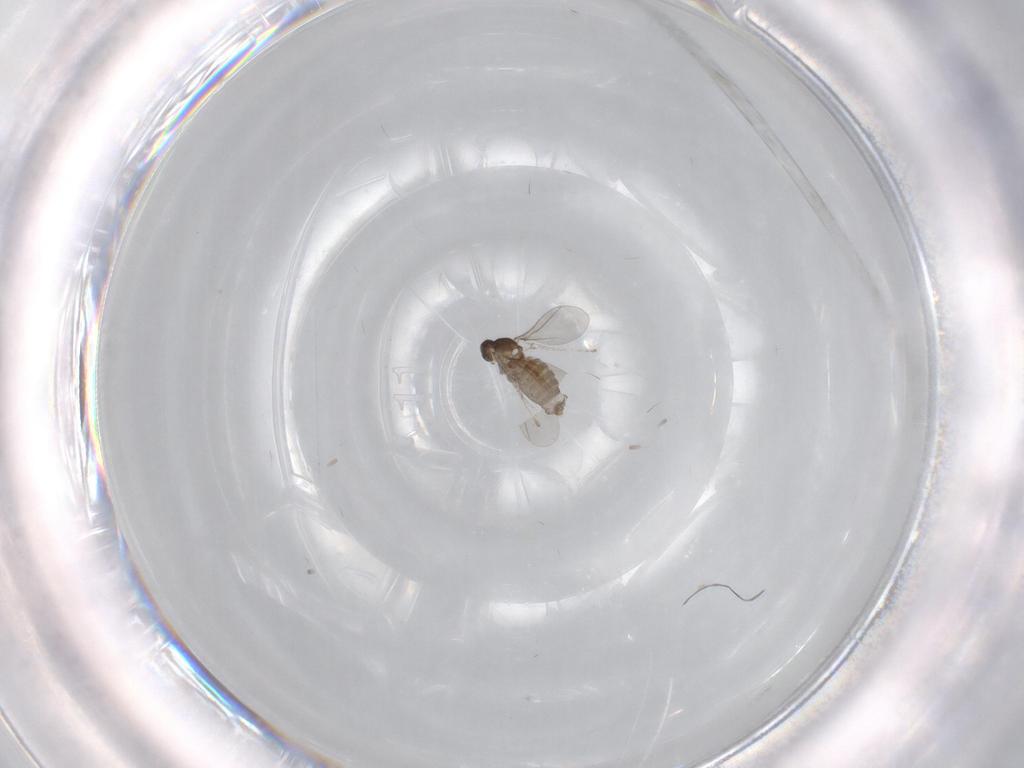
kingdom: Animalia
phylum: Arthropoda
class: Insecta
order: Diptera
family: Cecidomyiidae
